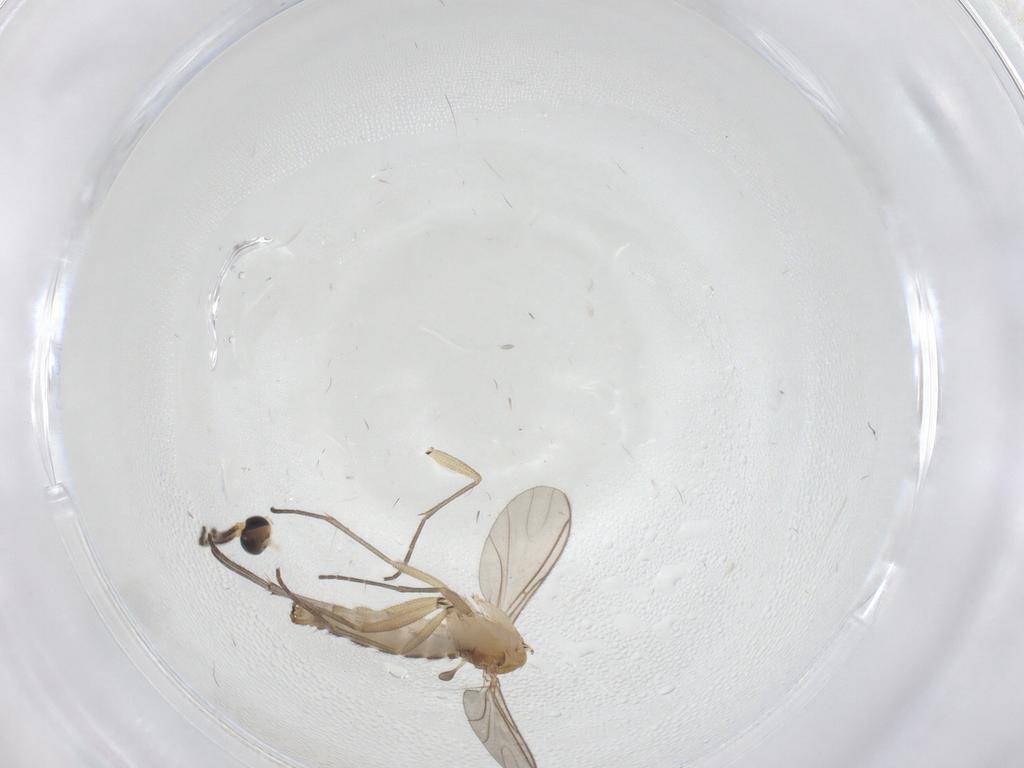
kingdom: Animalia
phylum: Arthropoda
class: Insecta
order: Diptera
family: Sciaridae
